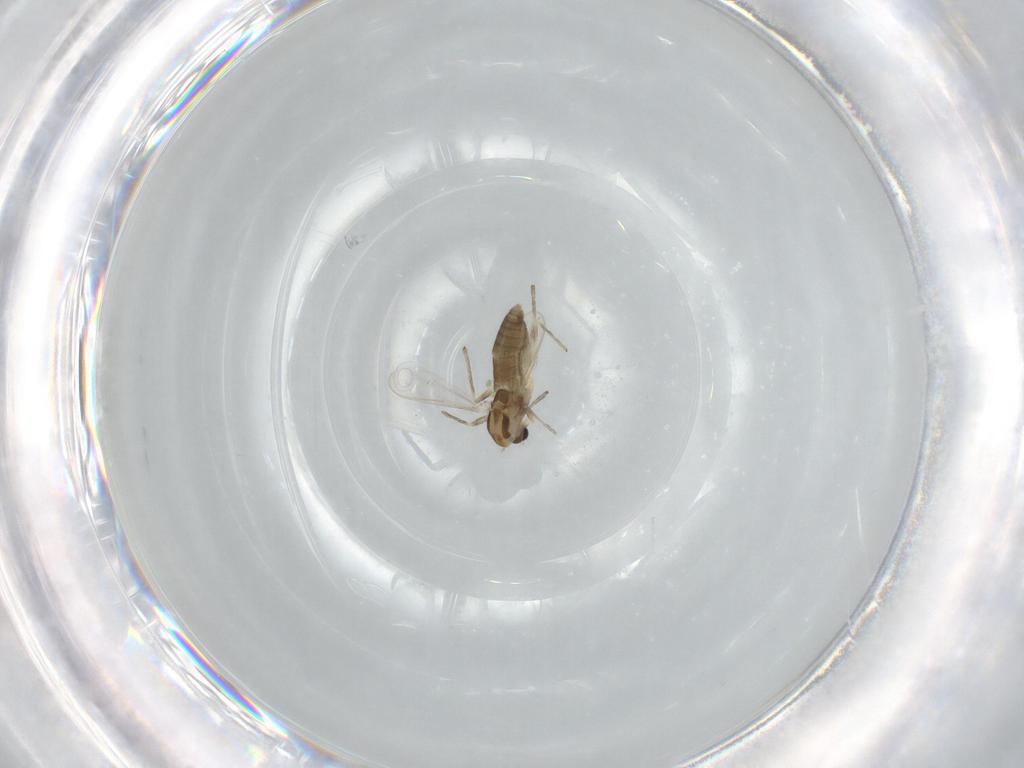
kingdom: Animalia
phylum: Arthropoda
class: Insecta
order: Diptera
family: Chironomidae
